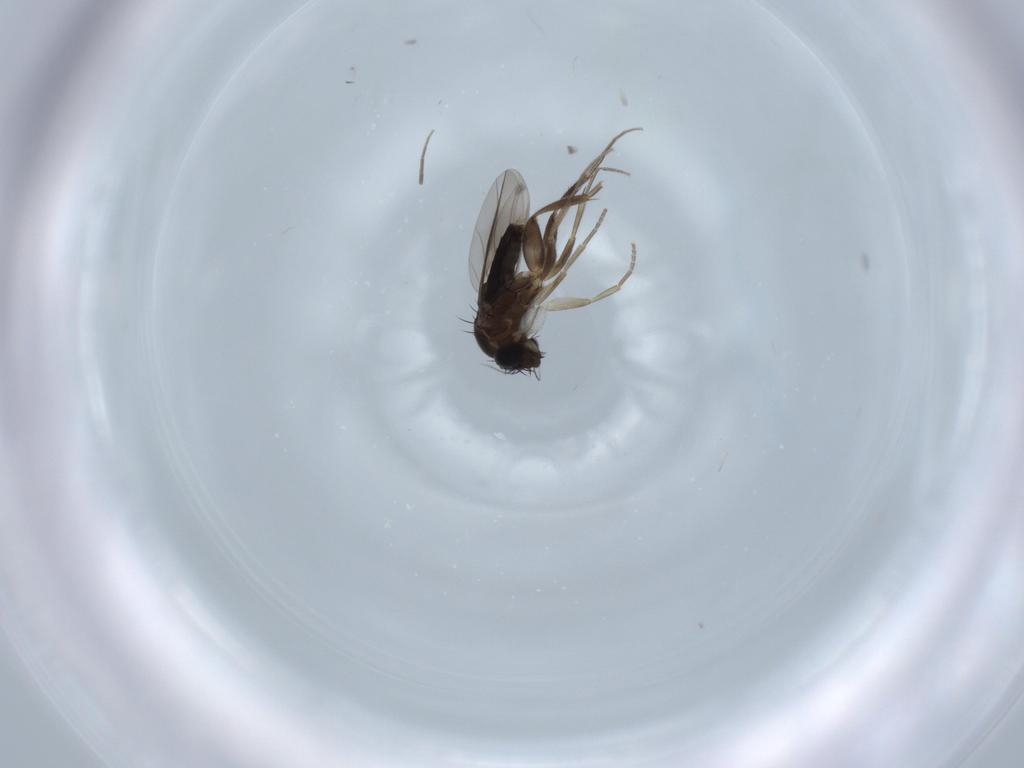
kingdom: Animalia
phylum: Arthropoda
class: Insecta
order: Diptera
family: Phoridae
